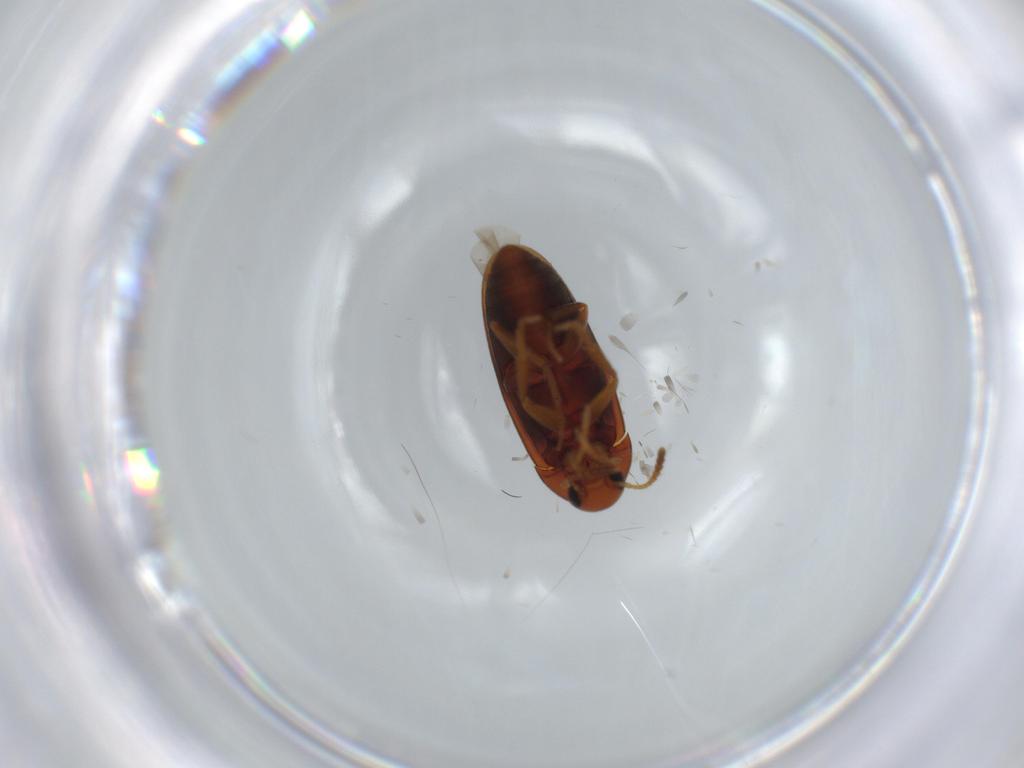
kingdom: Animalia
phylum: Arthropoda
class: Insecta
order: Coleoptera
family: Scraptiidae
